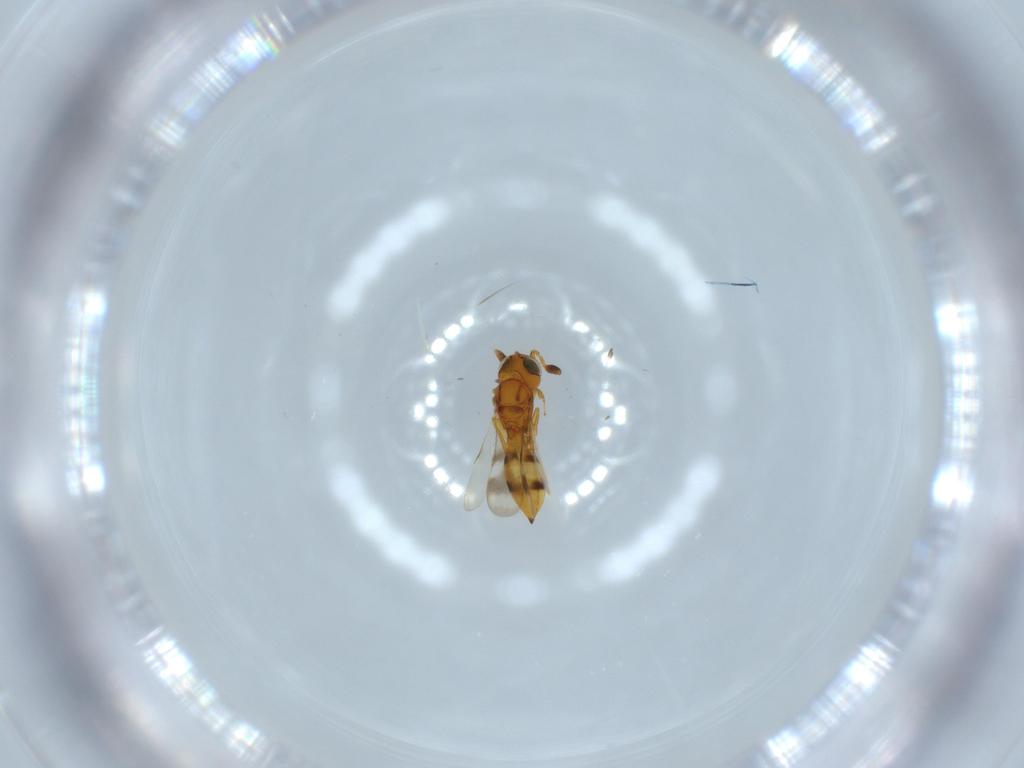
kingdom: Animalia
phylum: Arthropoda
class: Insecta
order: Hymenoptera
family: Scelionidae
